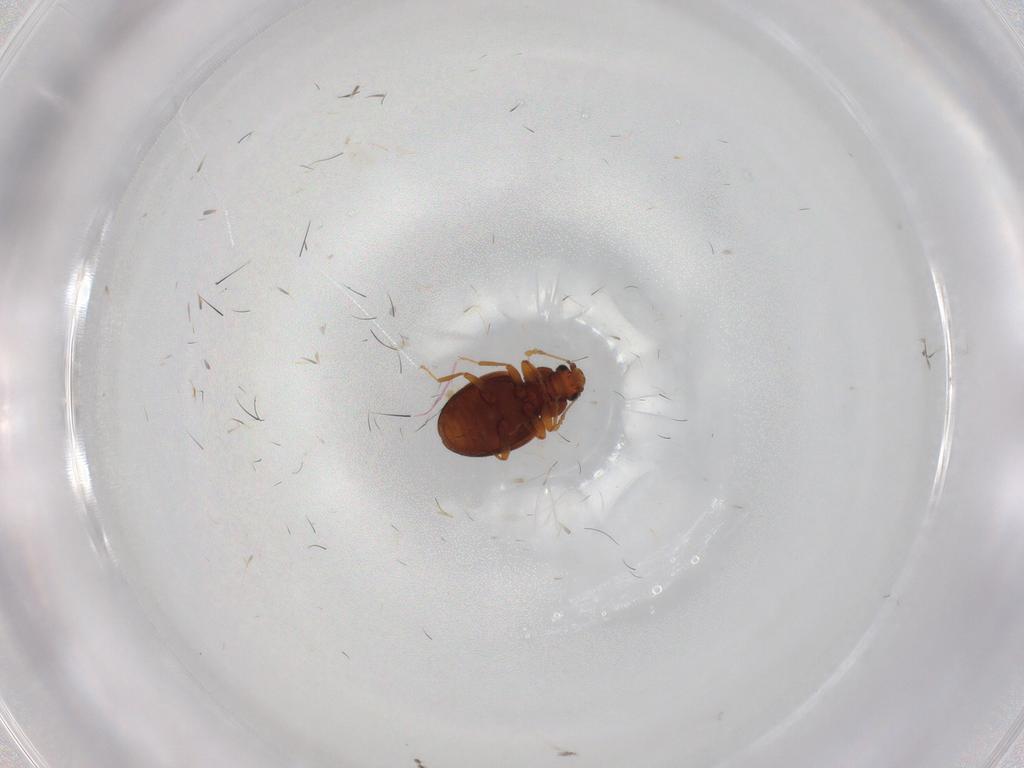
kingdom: Animalia
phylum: Arthropoda
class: Insecta
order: Coleoptera
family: Latridiidae
